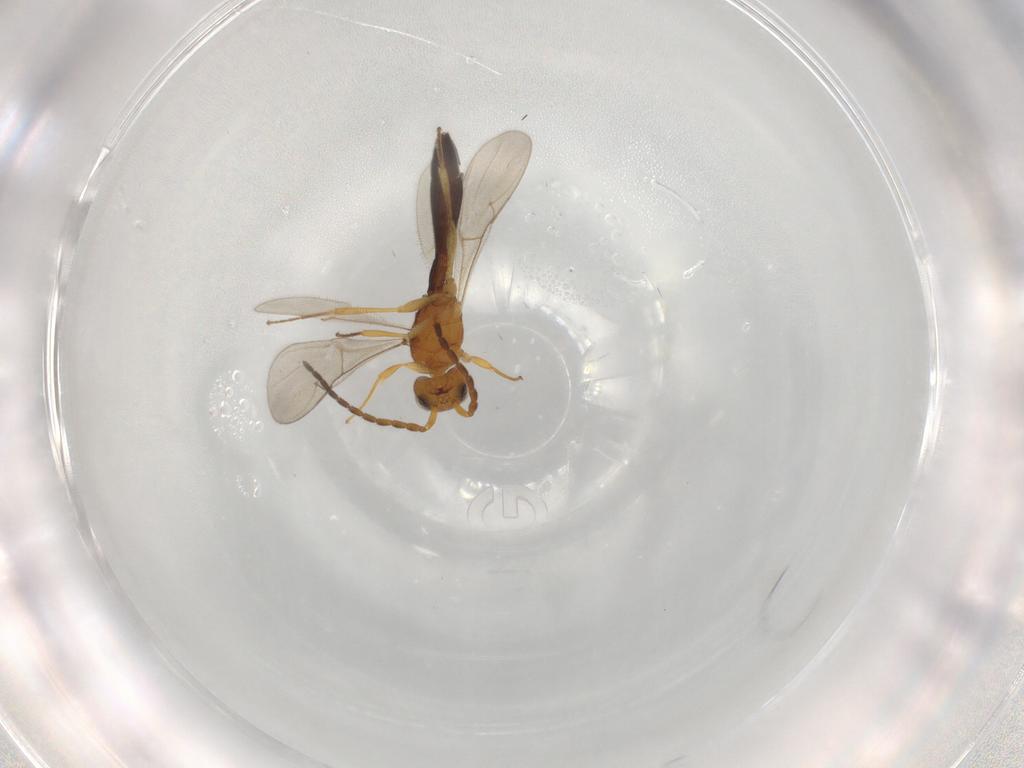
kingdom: Animalia
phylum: Arthropoda
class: Insecta
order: Hymenoptera
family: Scelionidae
